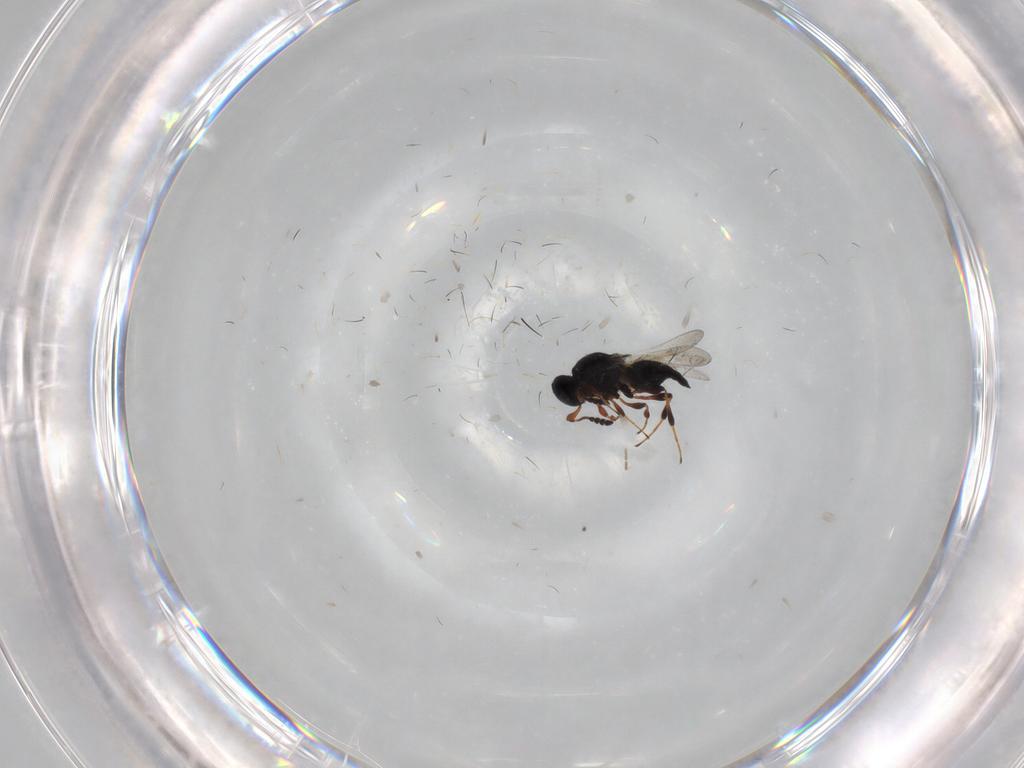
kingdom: Animalia
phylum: Arthropoda
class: Insecta
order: Hymenoptera
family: Platygastridae
